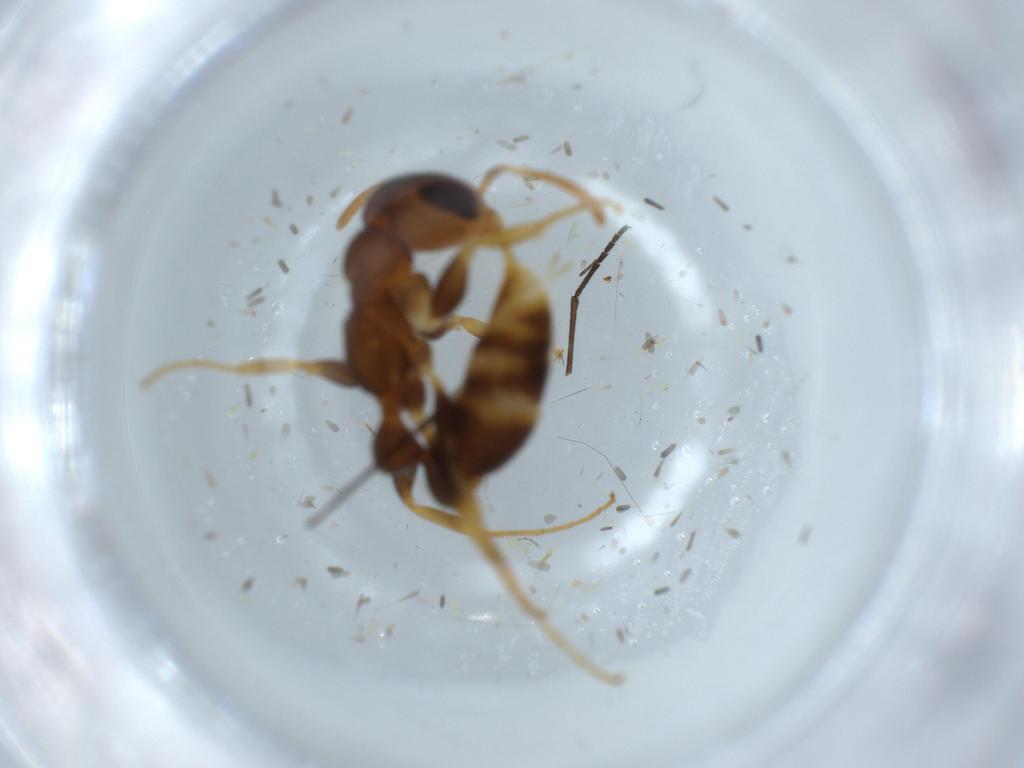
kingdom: Animalia
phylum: Arthropoda
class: Insecta
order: Hymenoptera
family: Formicidae
